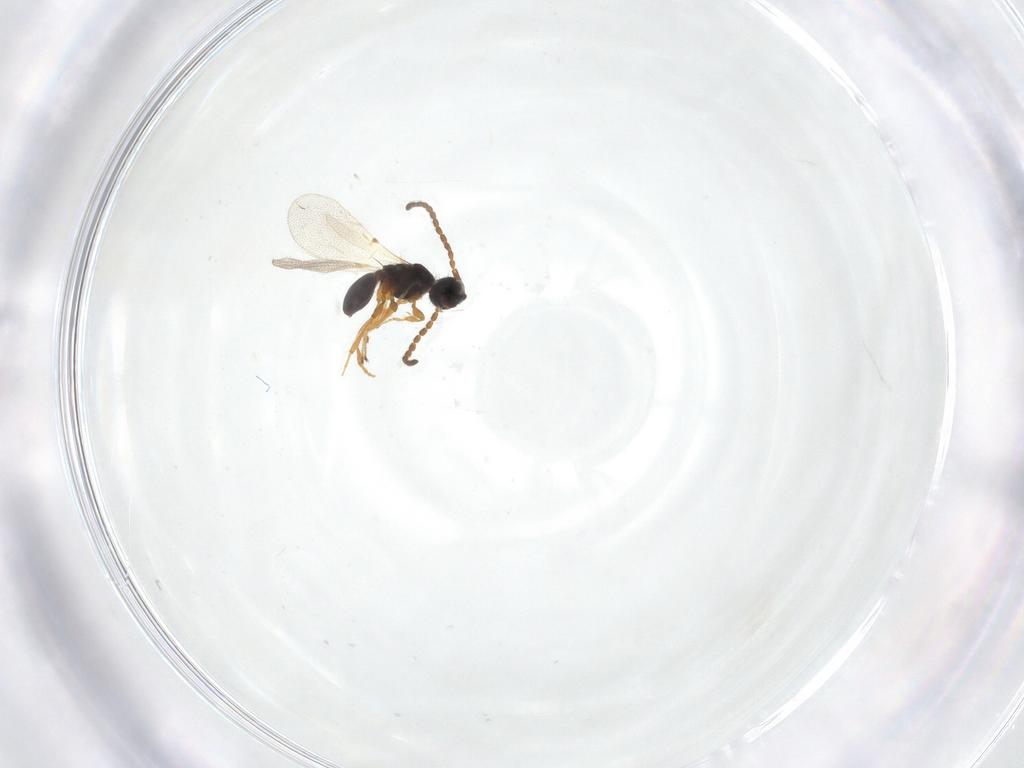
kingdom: Animalia
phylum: Arthropoda
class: Insecta
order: Hymenoptera
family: Diapriidae
